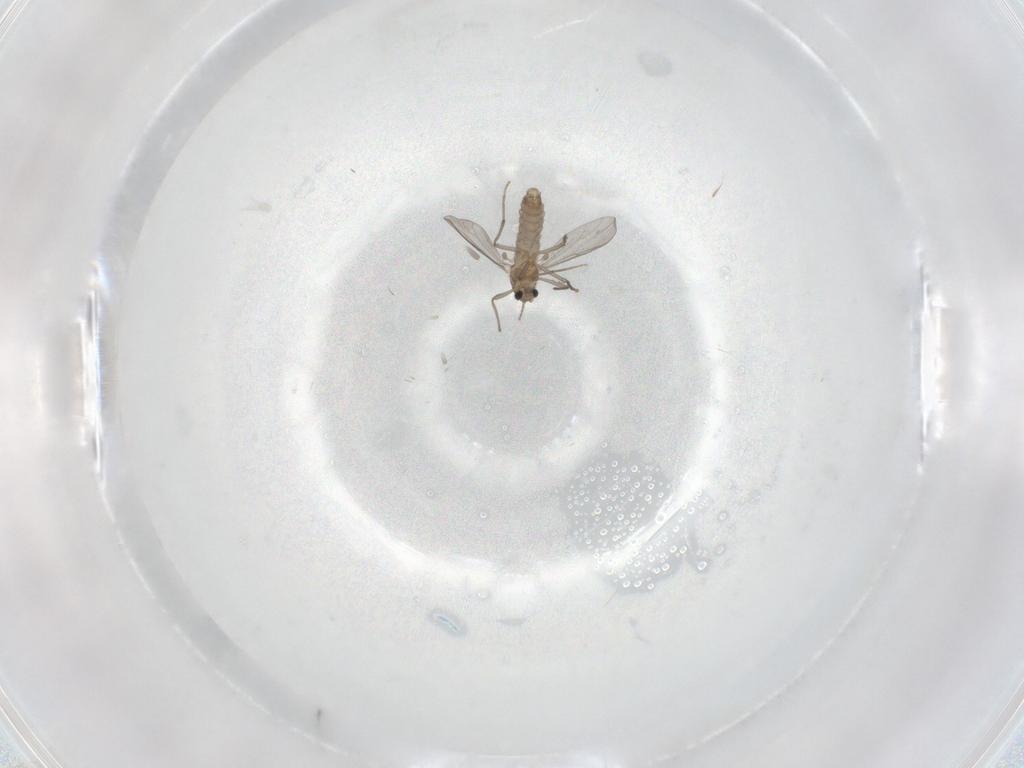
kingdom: Animalia
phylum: Arthropoda
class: Insecta
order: Diptera
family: Chironomidae
